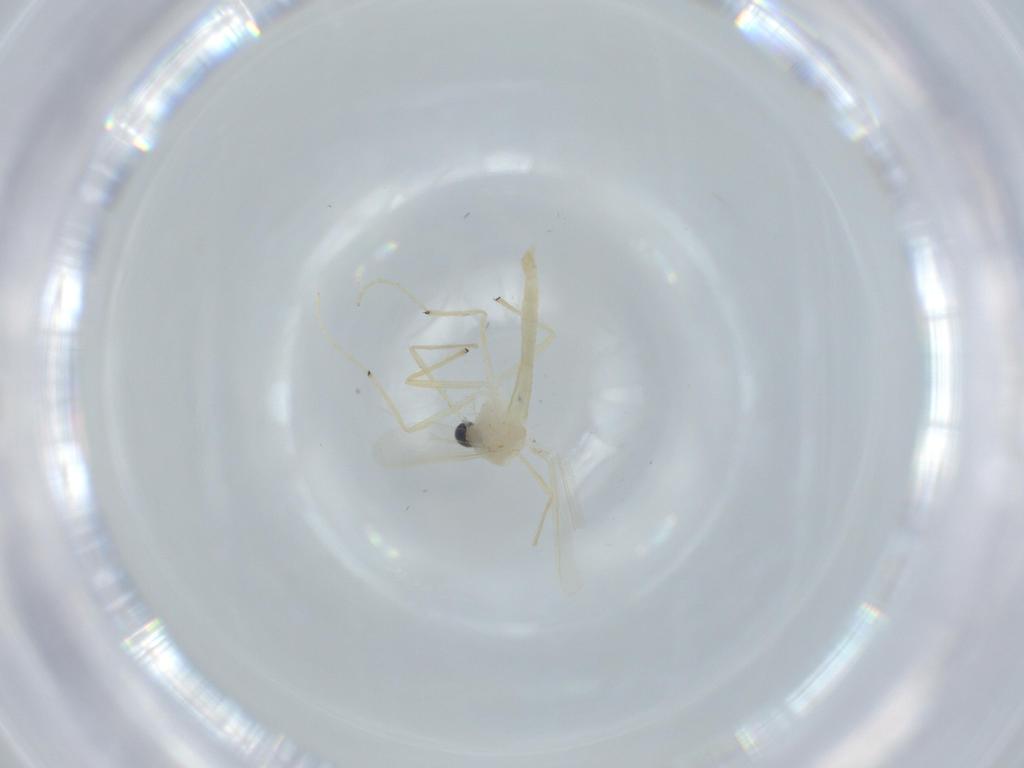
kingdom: Animalia
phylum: Arthropoda
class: Insecta
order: Diptera
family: Chironomidae
